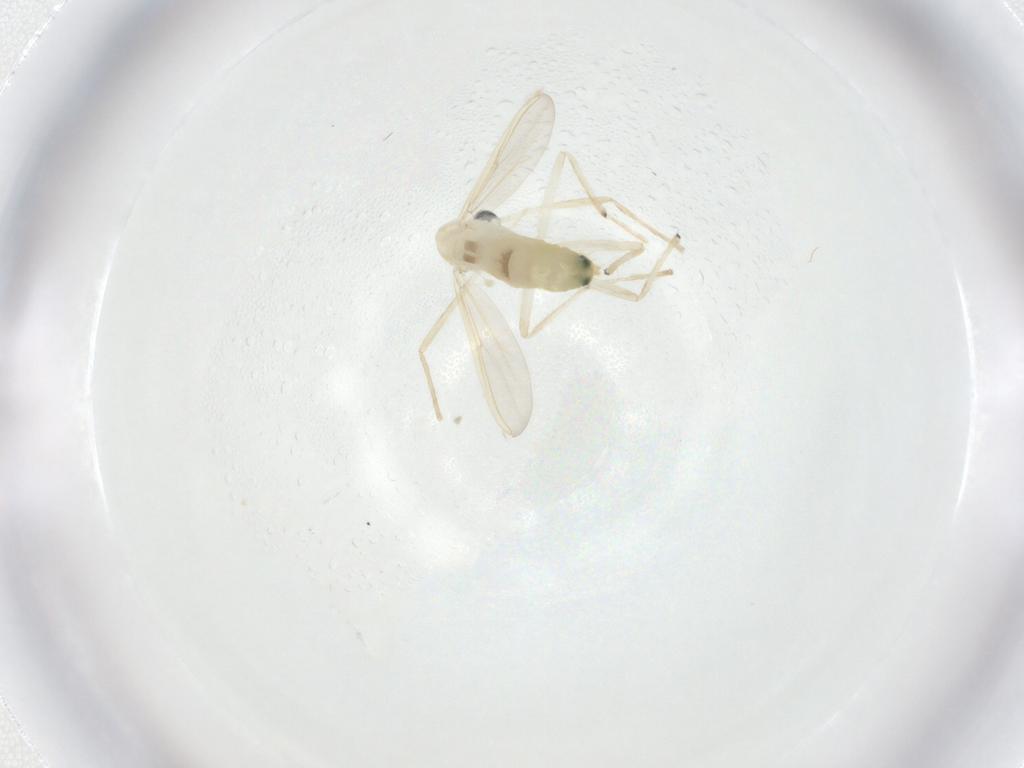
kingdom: Animalia
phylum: Arthropoda
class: Insecta
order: Diptera
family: Chironomidae
